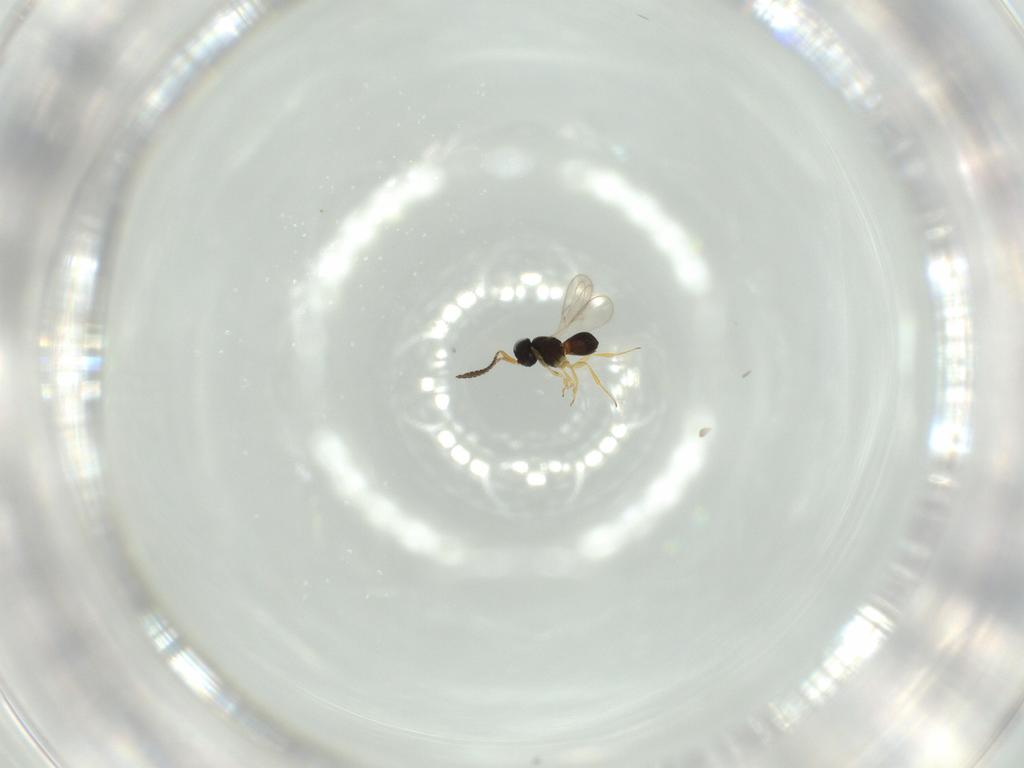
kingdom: Animalia
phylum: Arthropoda
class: Insecta
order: Hymenoptera
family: Scelionidae
